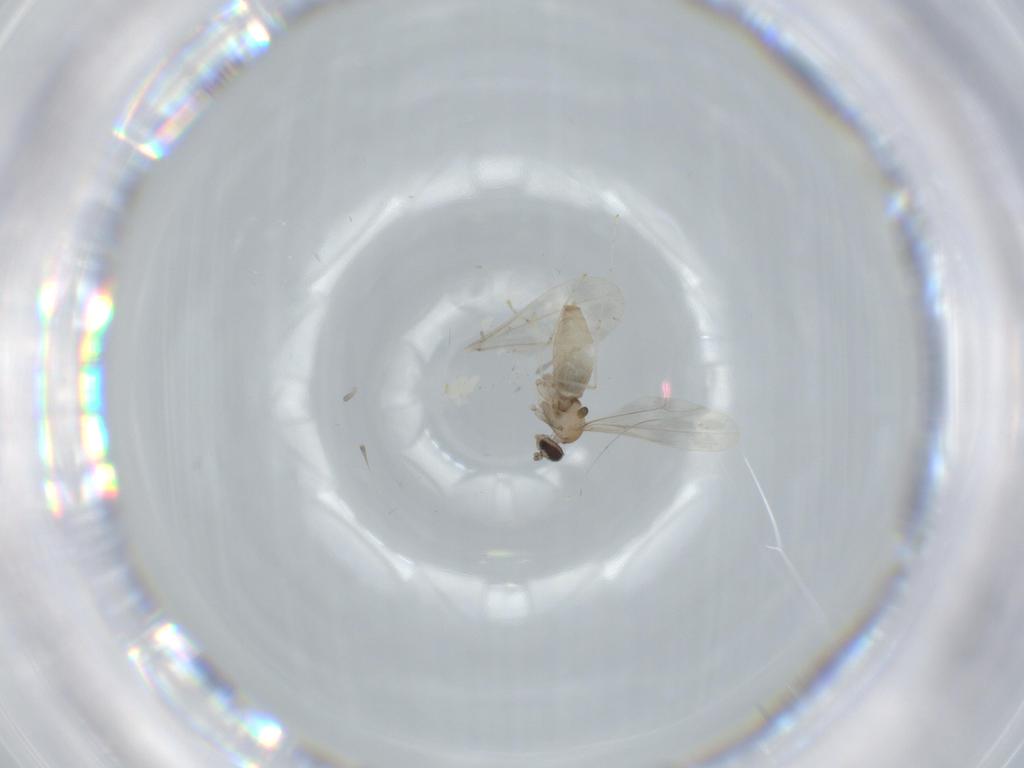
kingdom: Animalia
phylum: Arthropoda
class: Insecta
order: Diptera
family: Cecidomyiidae
